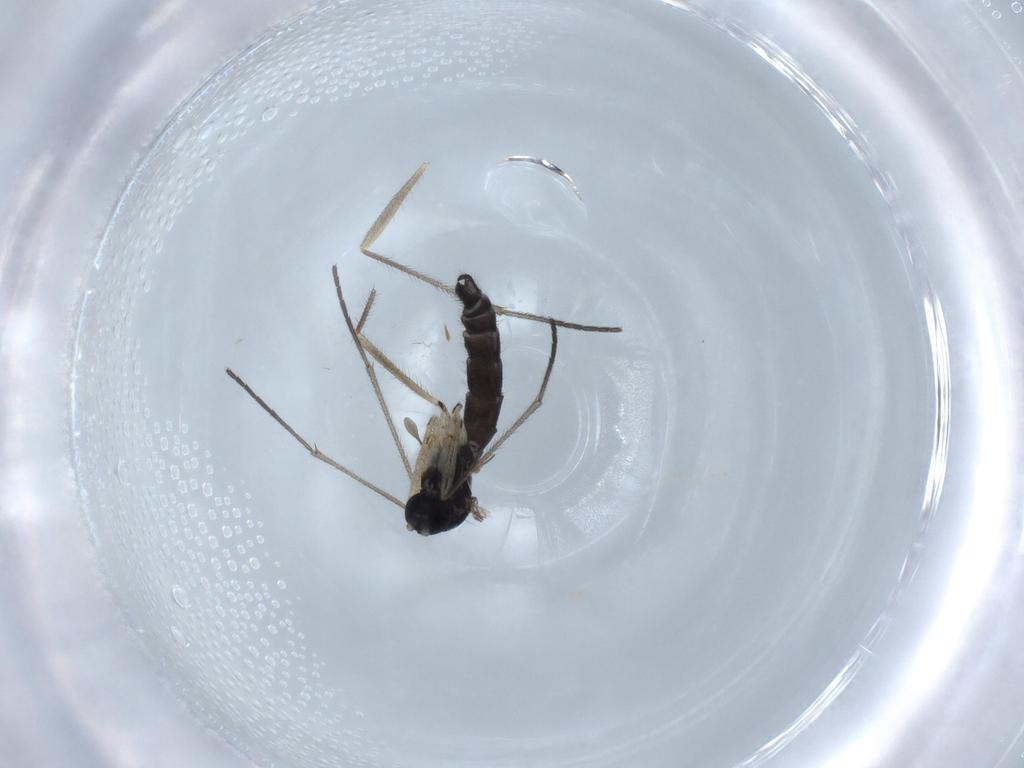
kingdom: Animalia
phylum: Arthropoda
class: Insecta
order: Diptera
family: Sciaridae
